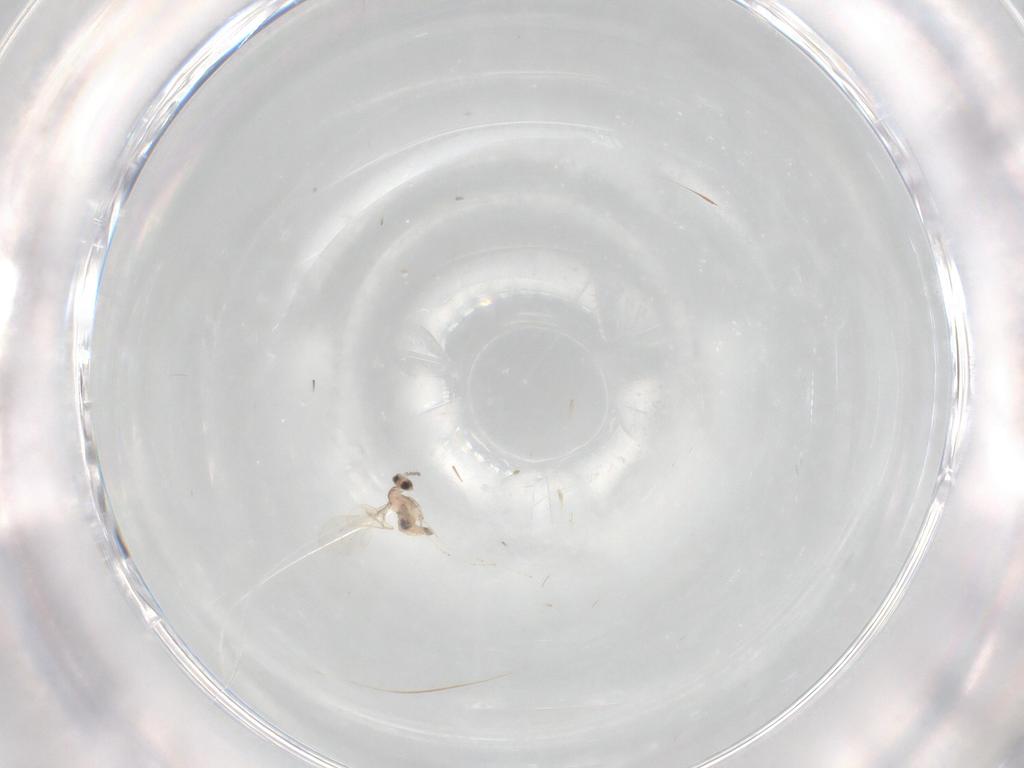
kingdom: Animalia
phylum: Arthropoda
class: Insecta
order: Diptera
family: Cecidomyiidae
